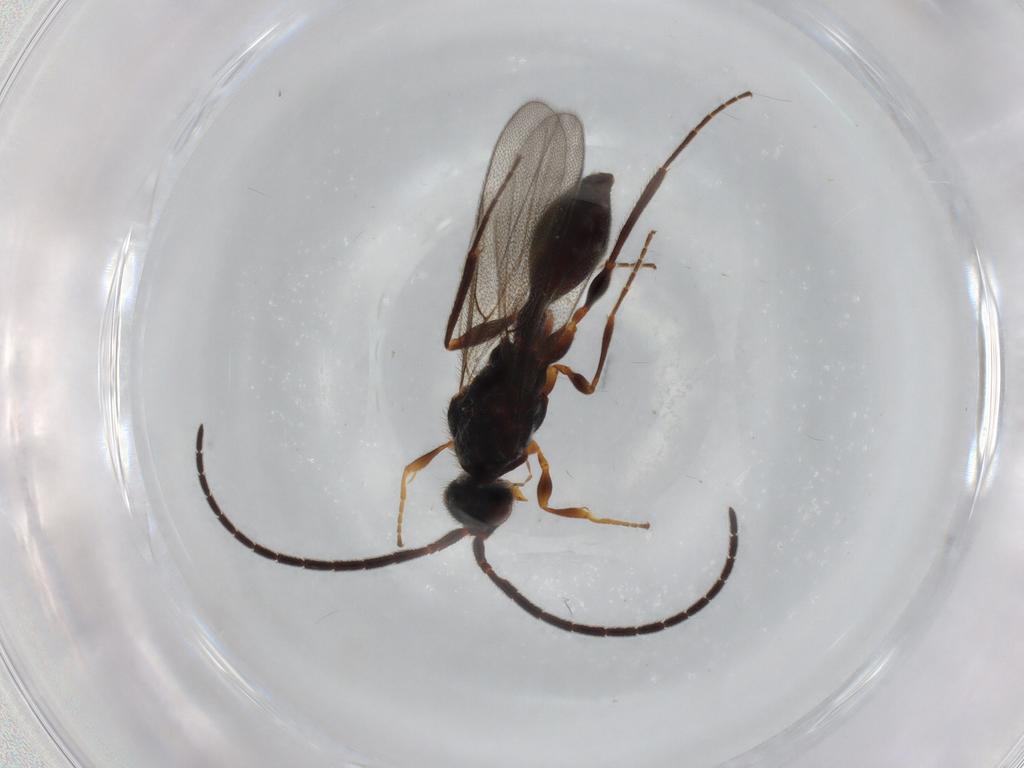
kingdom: Animalia
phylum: Arthropoda
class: Insecta
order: Hymenoptera
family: Diapriidae
